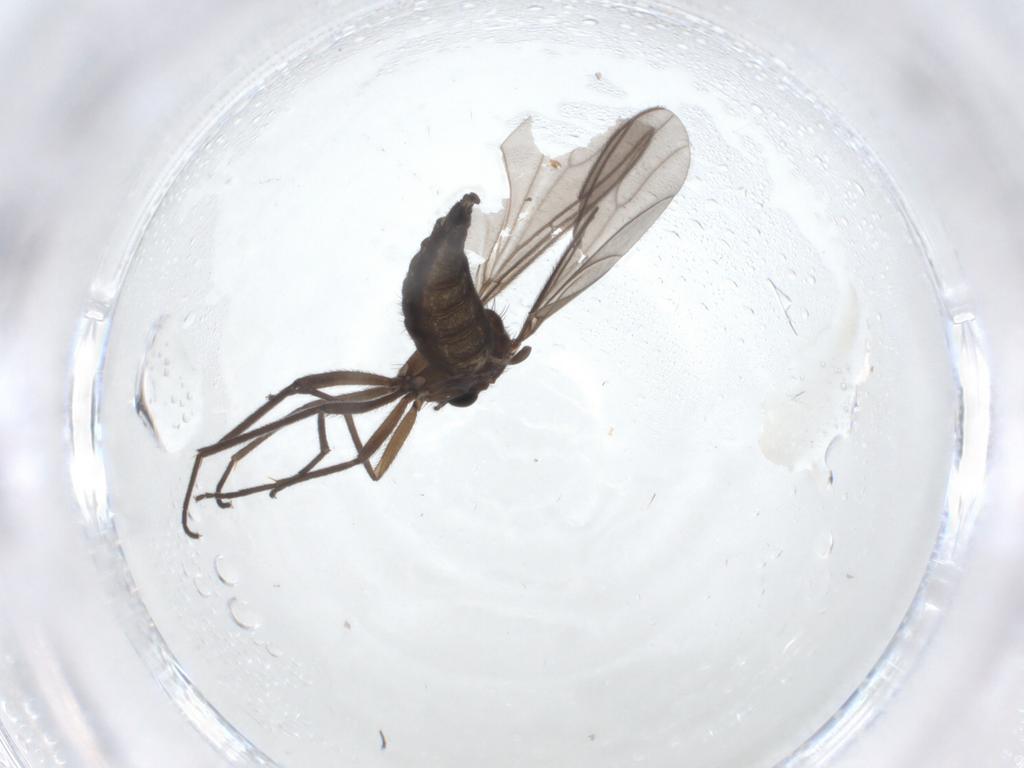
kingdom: Animalia
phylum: Arthropoda
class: Insecta
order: Diptera
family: Sciaridae
